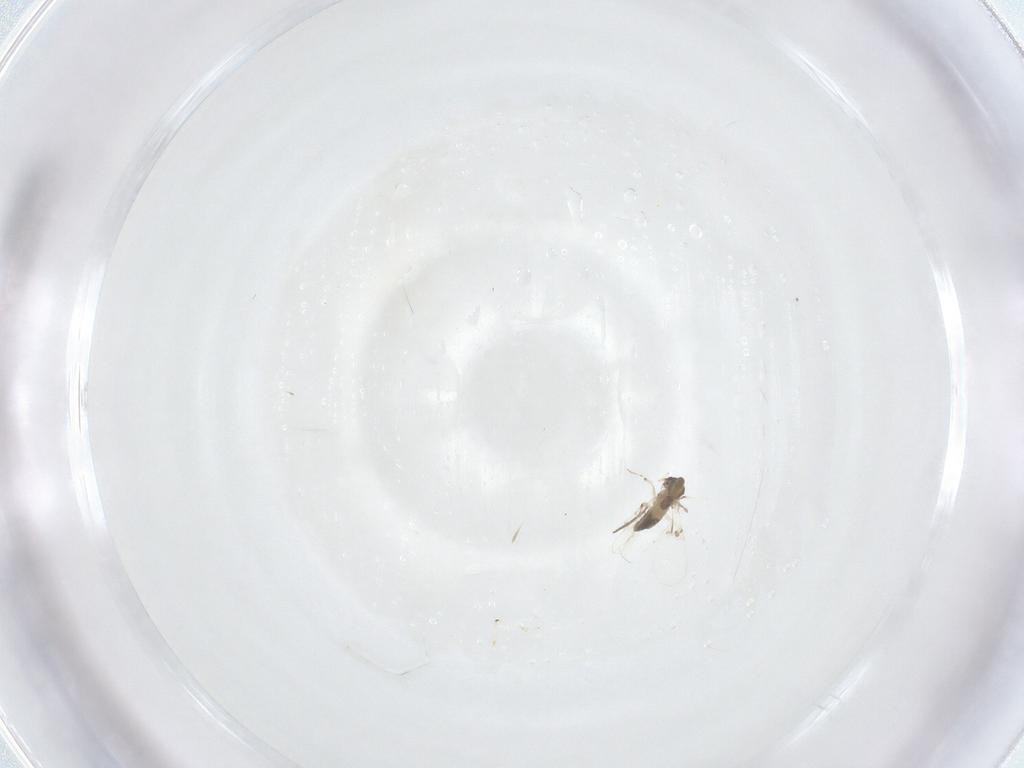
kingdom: Animalia
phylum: Arthropoda
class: Insecta
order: Diptera
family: Chironomidae
